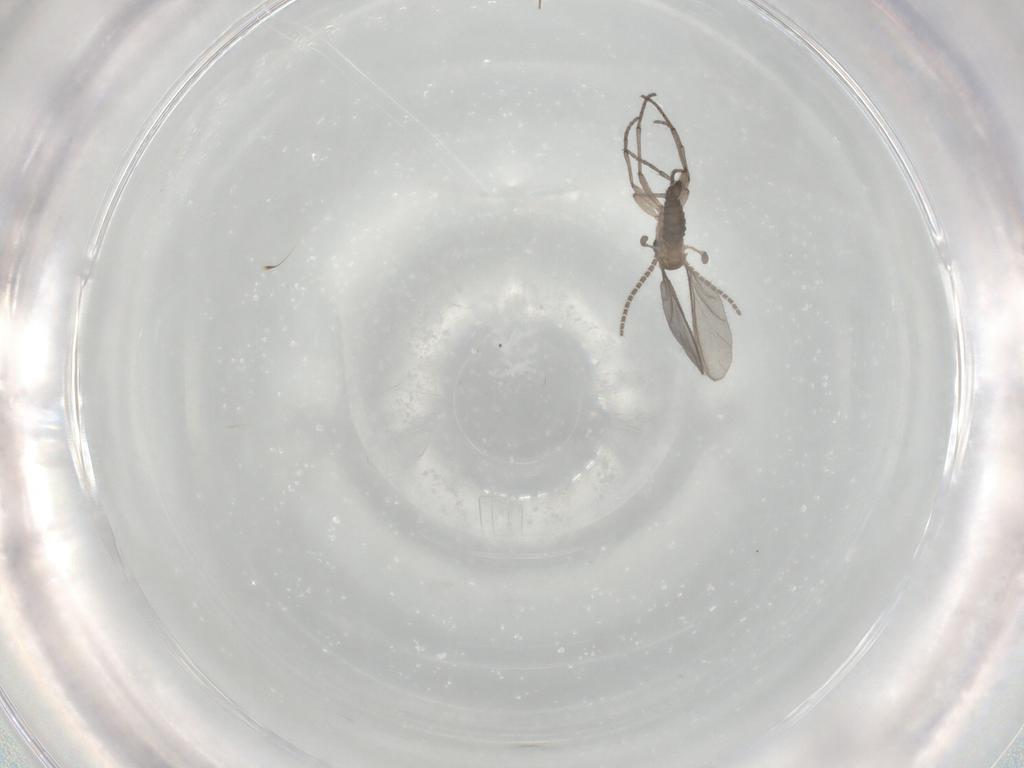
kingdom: Animalia
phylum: Arthropoda
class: Insecta
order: Diptera
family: Sciaridae
